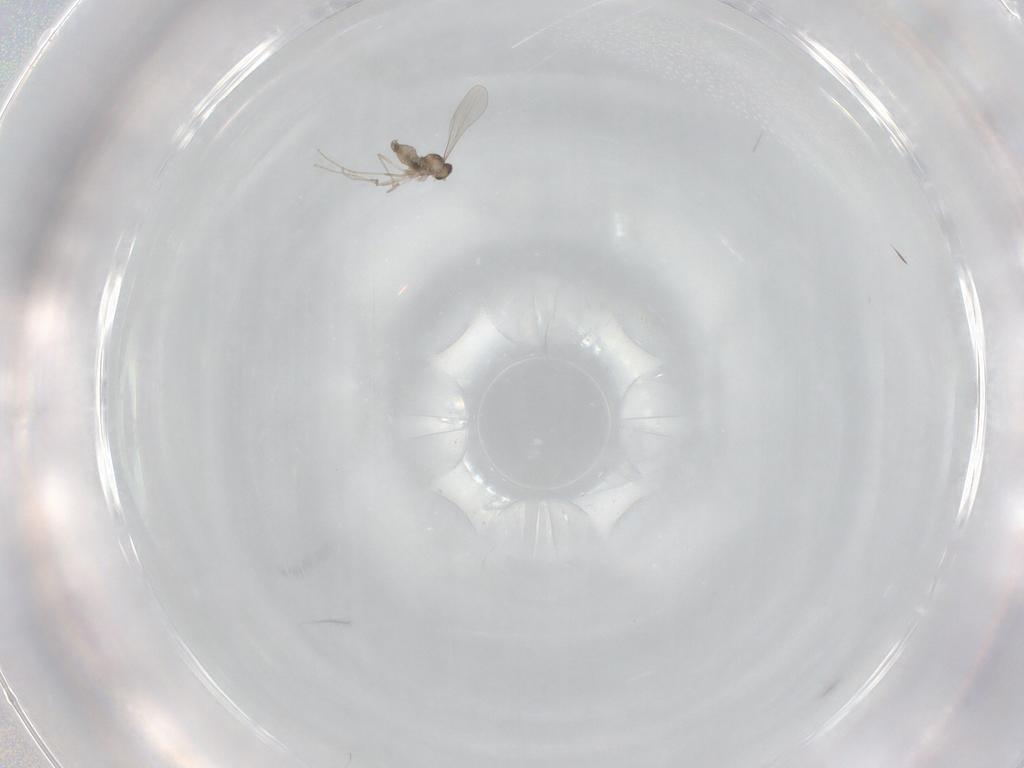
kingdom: Animalia
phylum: Arthropoda
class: Insecta
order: Diptera
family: Cecidomyiidae
